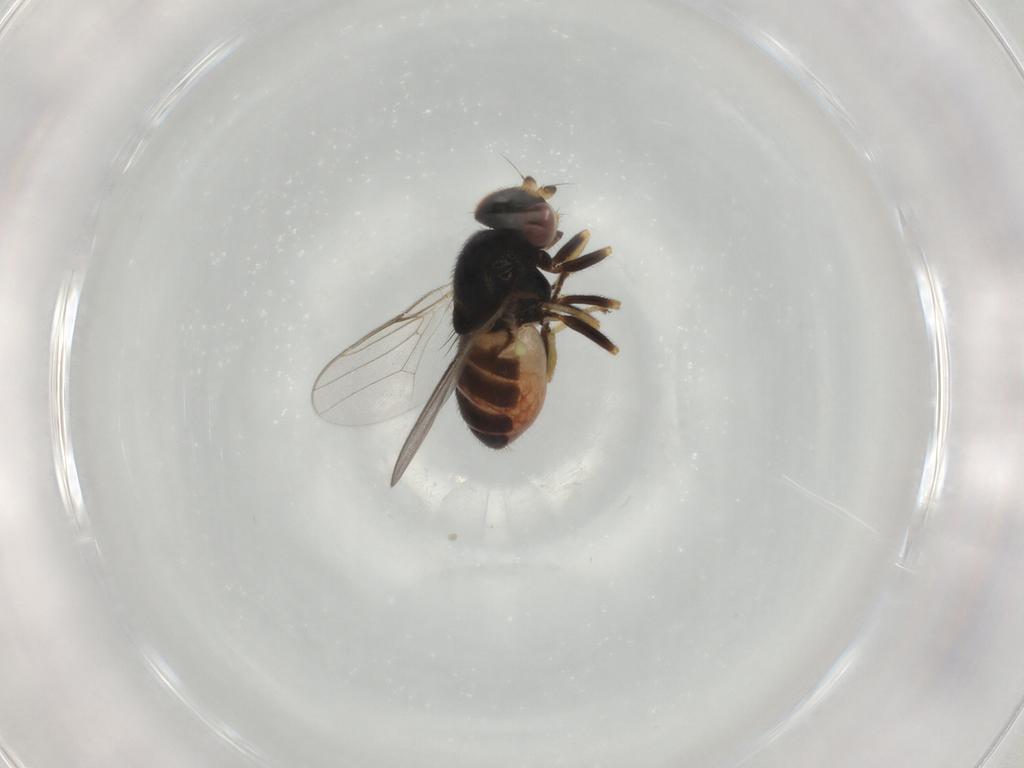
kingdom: Animalia
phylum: Arthropoda
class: Insecta
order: Diptera
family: Chloropidae
